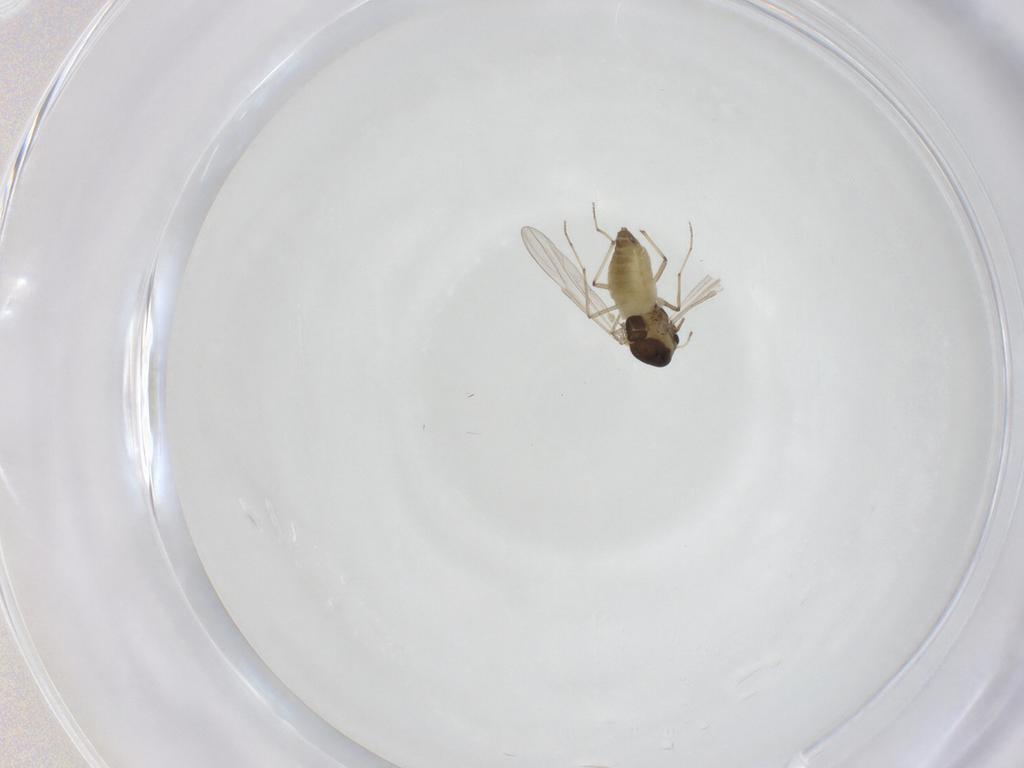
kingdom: Animalia
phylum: Arthropoda
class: Insecta
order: Diptera
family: Chironomidae
